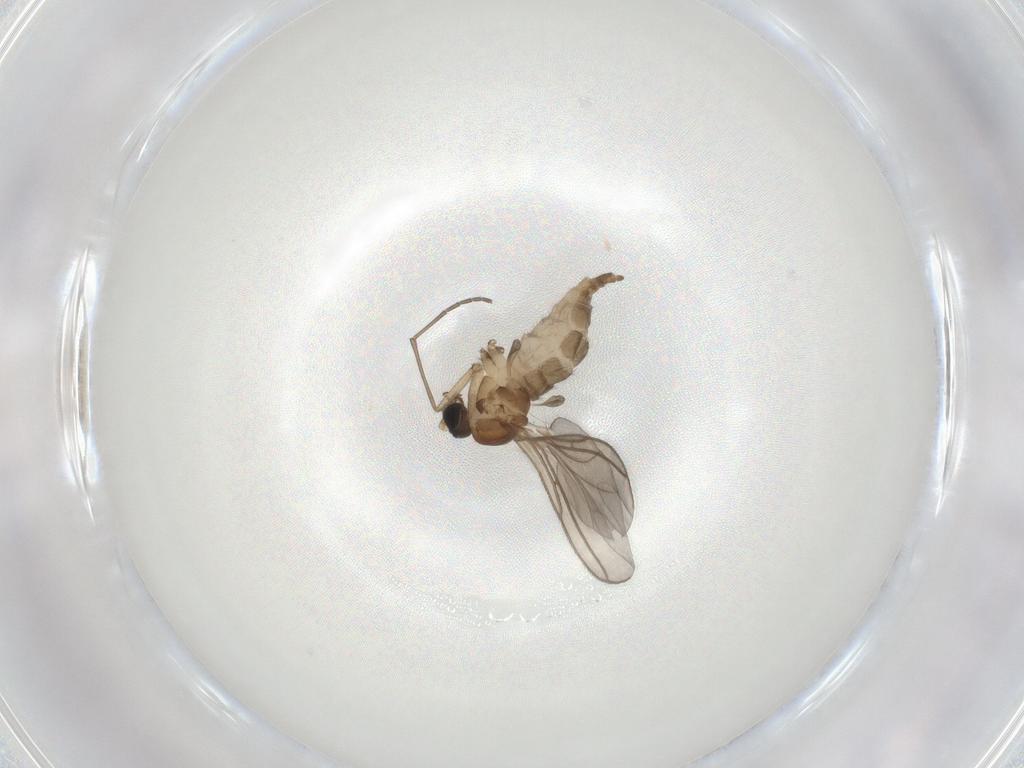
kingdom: Animalia
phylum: Arthropoda
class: Insecta
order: Diptera
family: Sciaridae
